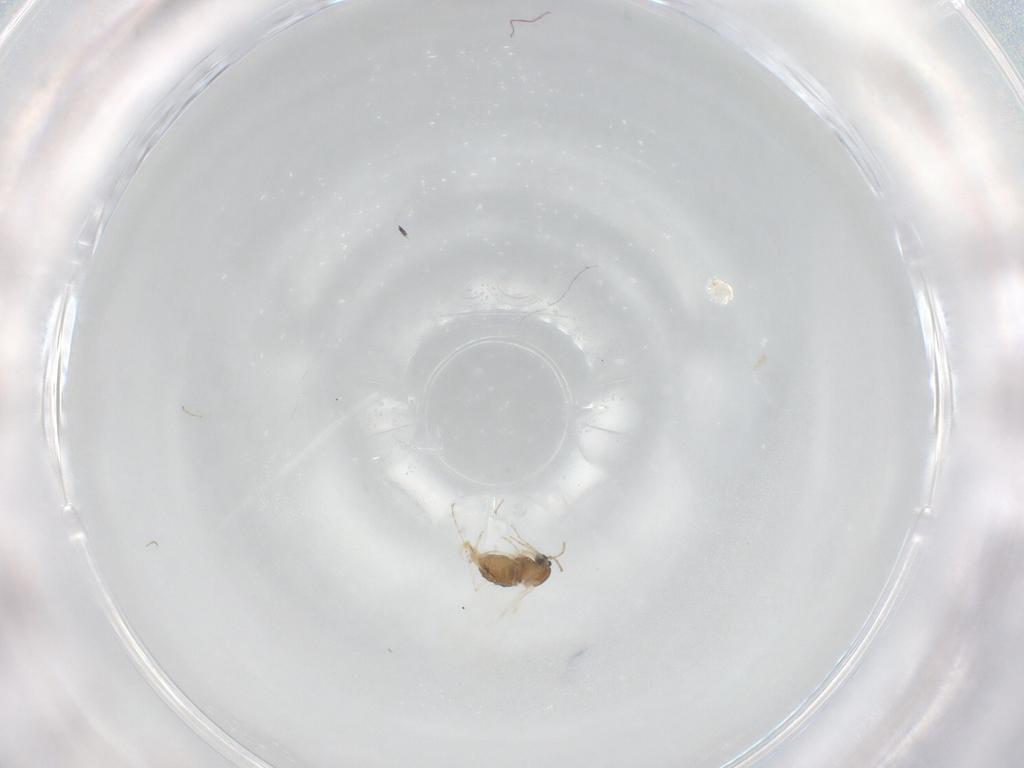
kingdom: Animalia
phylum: Arthropoda
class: Insecta
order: Diptera
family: Cecidomyiidae
